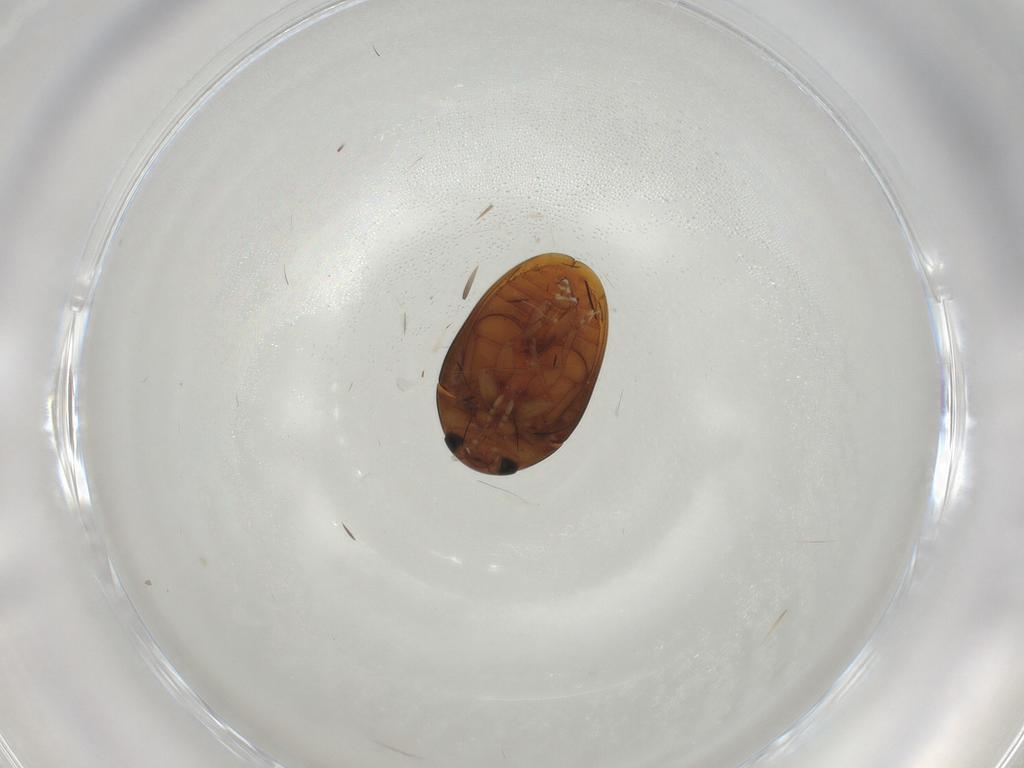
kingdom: Animalia
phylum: Arthropoda
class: Insecta
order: Coleoptera
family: Phalacridae
